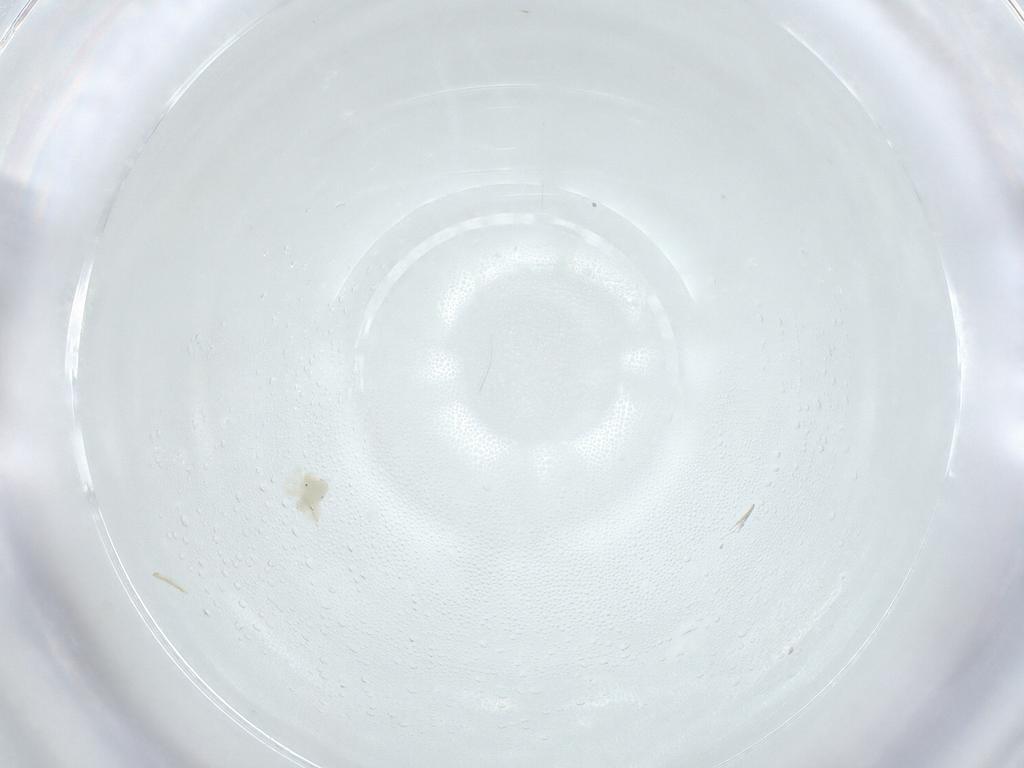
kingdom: Animalia
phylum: Arthropoda
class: Arachnida
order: Trombidiformes
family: Anystidae
